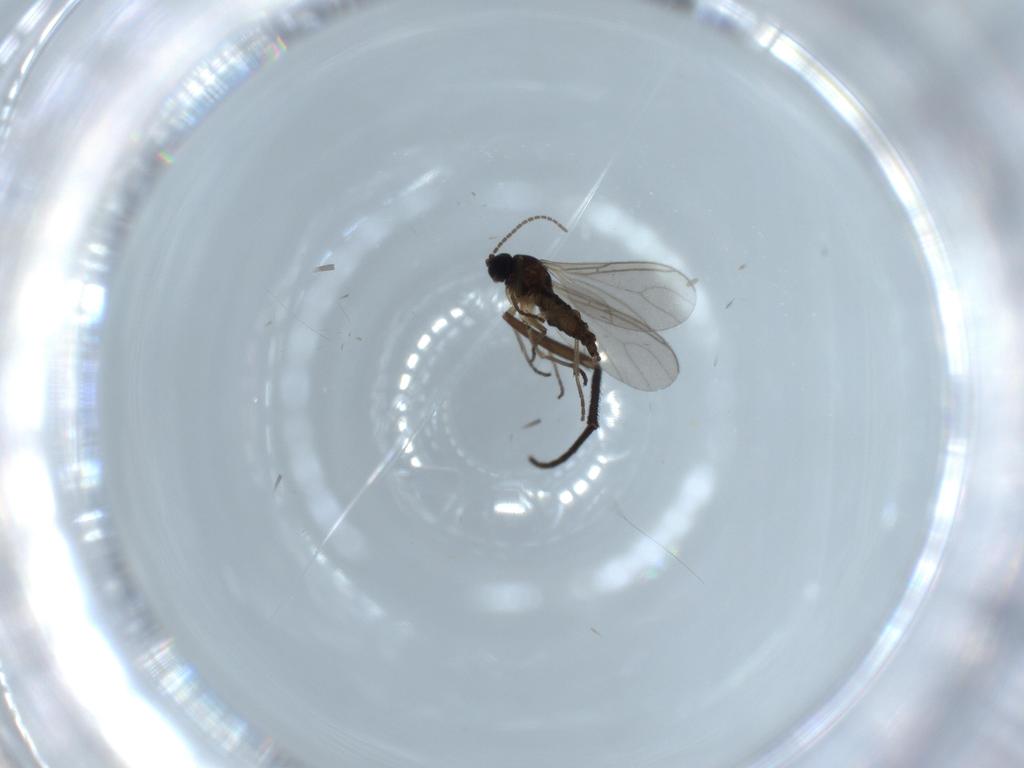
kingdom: Animalia
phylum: Arthropoda
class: Insecta
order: Diptera
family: Sciaridae
